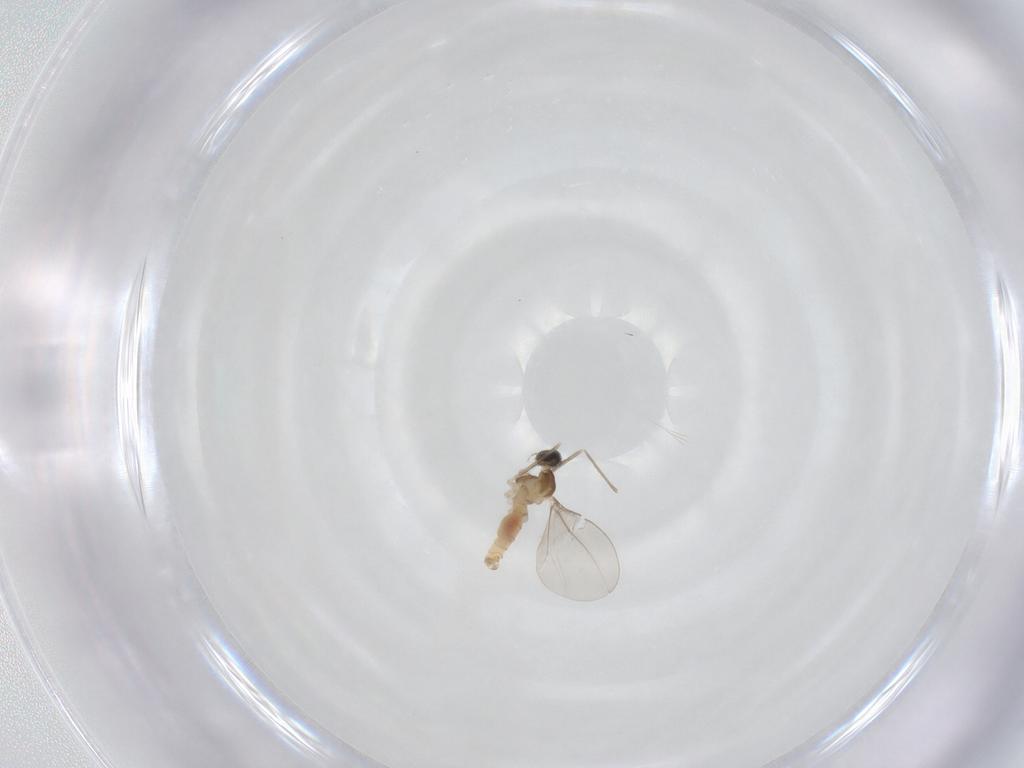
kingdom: Animalia
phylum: Arthropoda
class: Insecta
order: Diptera
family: Cecidomyiidae
